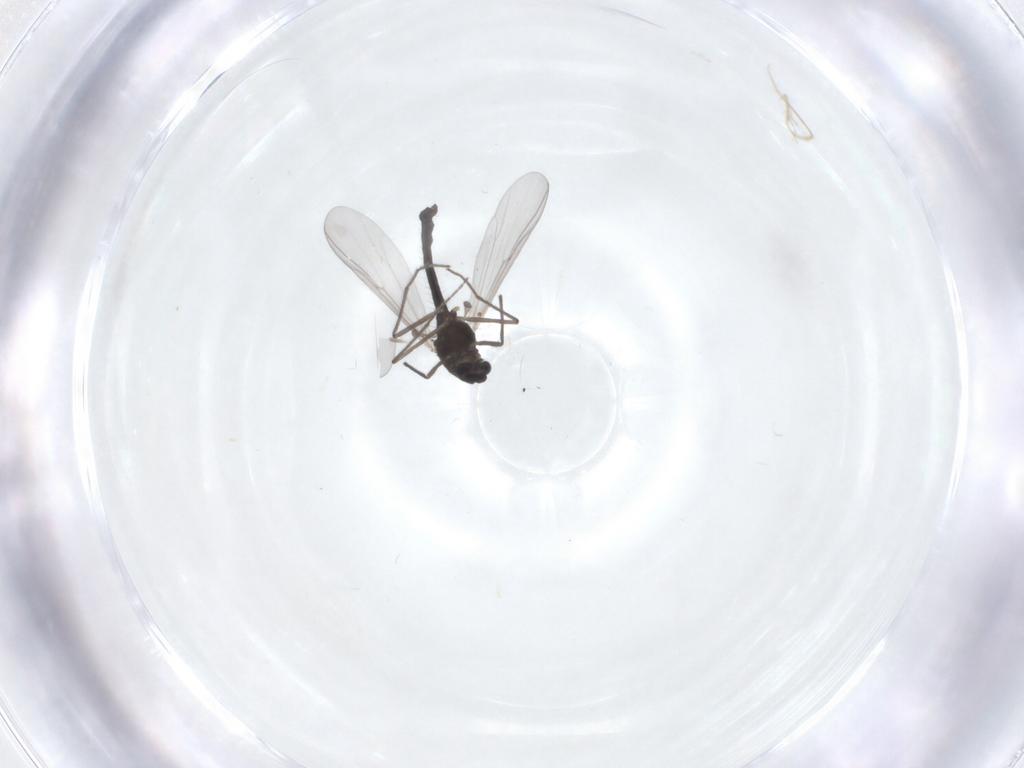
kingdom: Animalia
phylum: Arthropoda
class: Insecta
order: Diptera
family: Chironomidae
